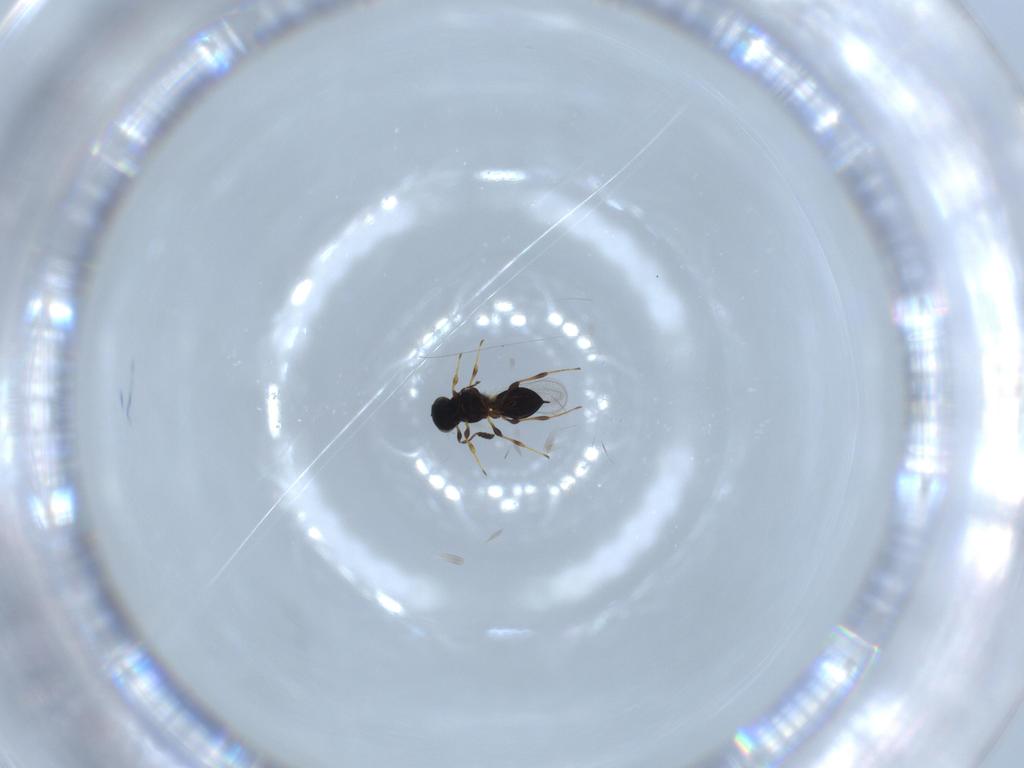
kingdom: Animalia
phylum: Arthropoda
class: Insecta
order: Hymenoptera
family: Platygastridae
